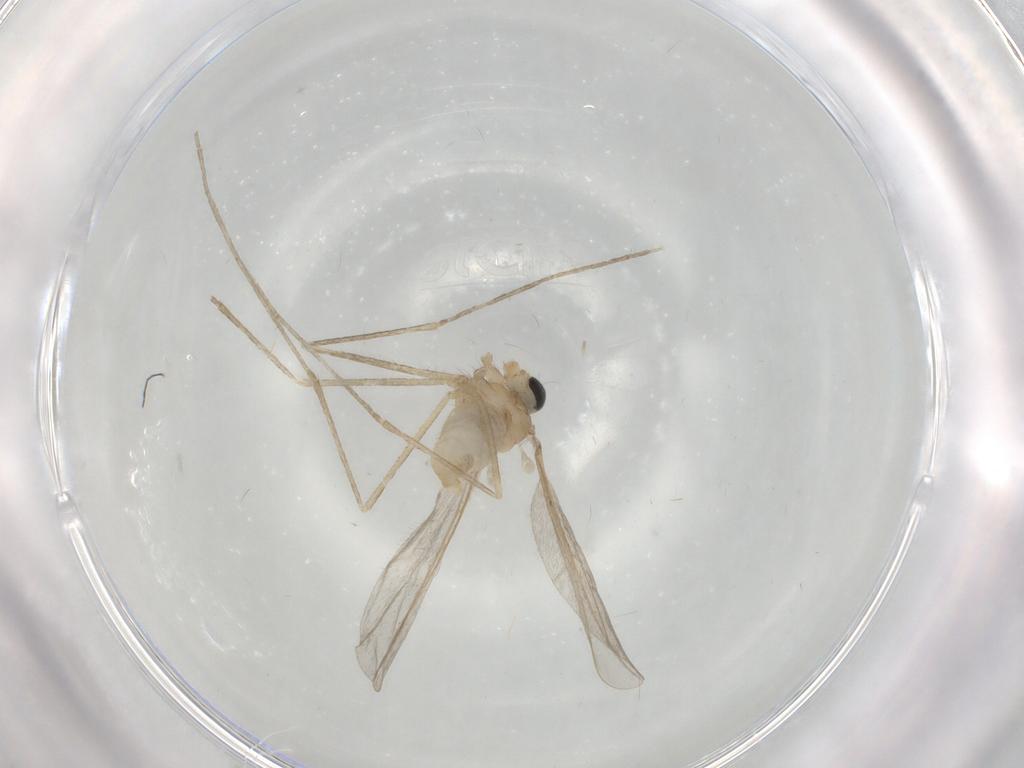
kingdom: Animalia
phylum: Arthropoda
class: Insecta
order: Diptera
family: Cecidomyiidae
